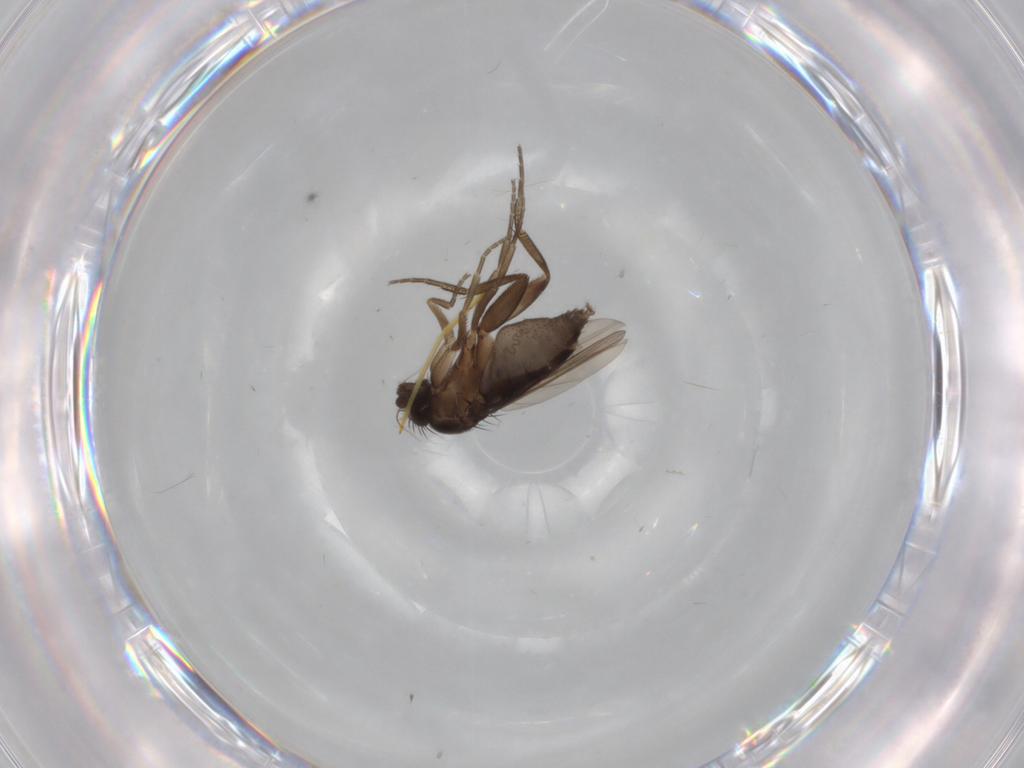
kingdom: Animalia
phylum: Arthropoda
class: Insecta
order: Diptera
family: Phoridae
